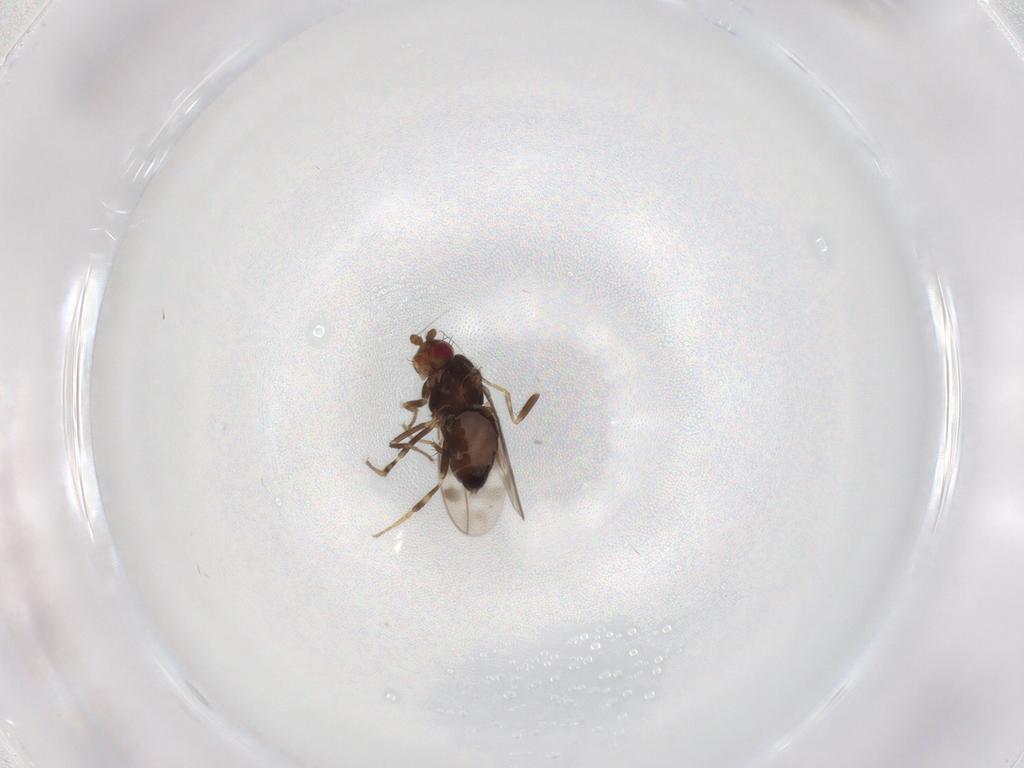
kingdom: Animalia
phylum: Arthropoda
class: Insecta
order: Diptera
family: Sphaeroceridae
